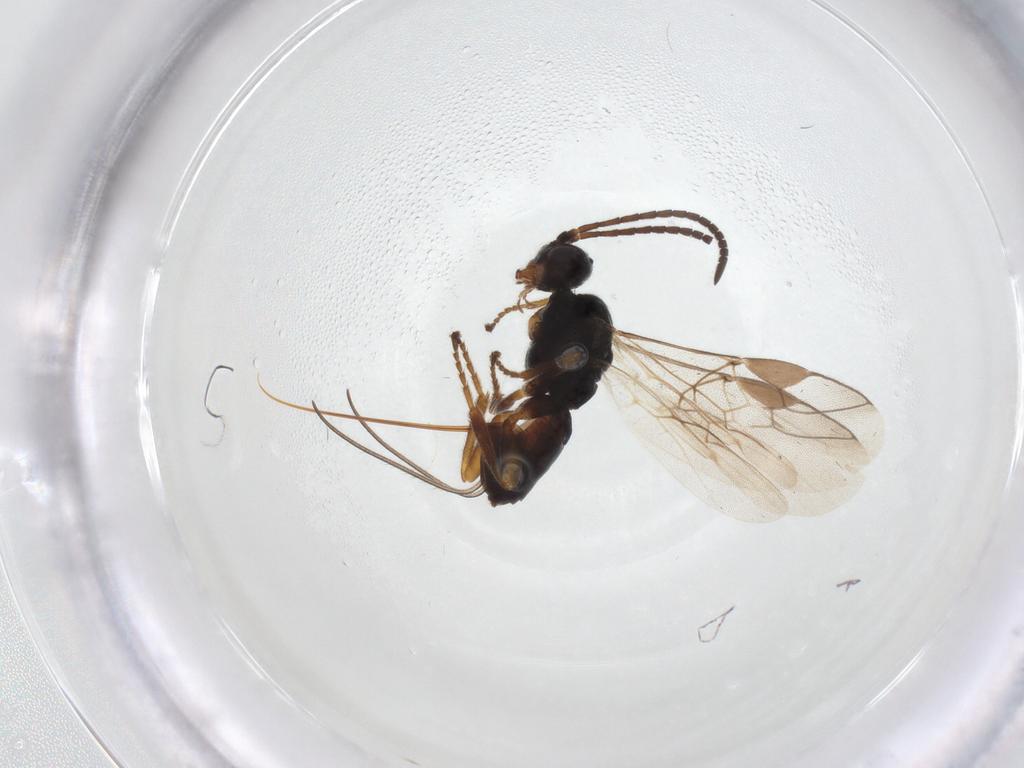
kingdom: Animalia
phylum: Arthropoda
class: Insecta
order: Hymenoptera
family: Braconidae
